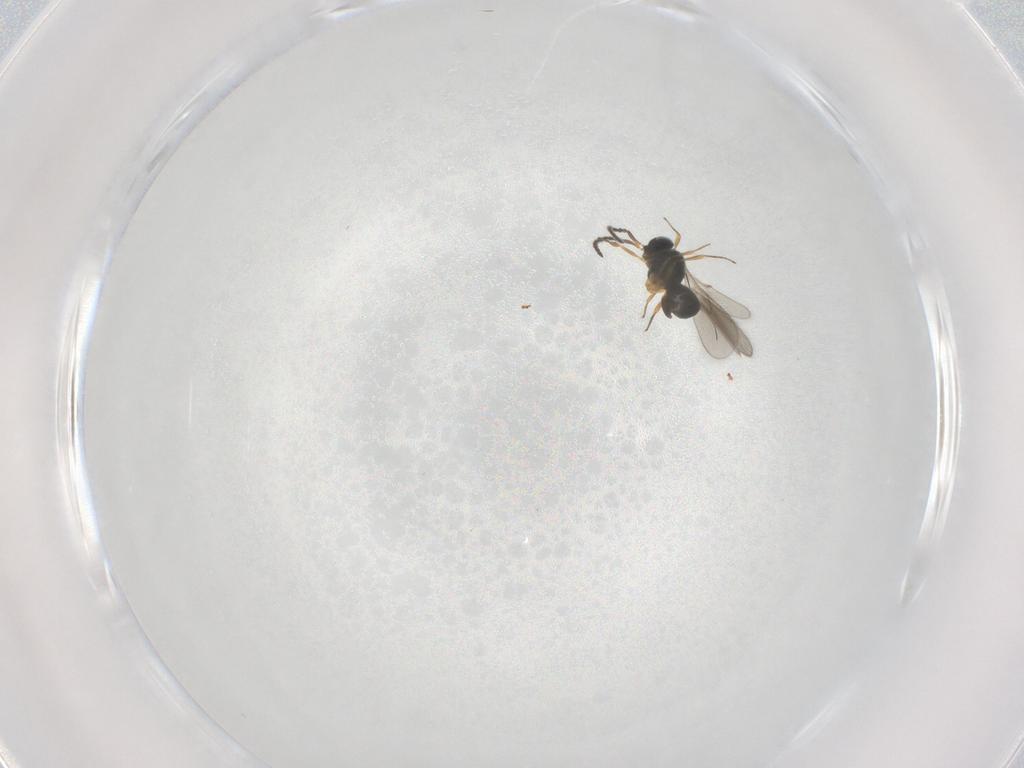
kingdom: Animalia
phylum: Arthropoda
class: Insecta
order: Hymenoptera
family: Scelionidae
